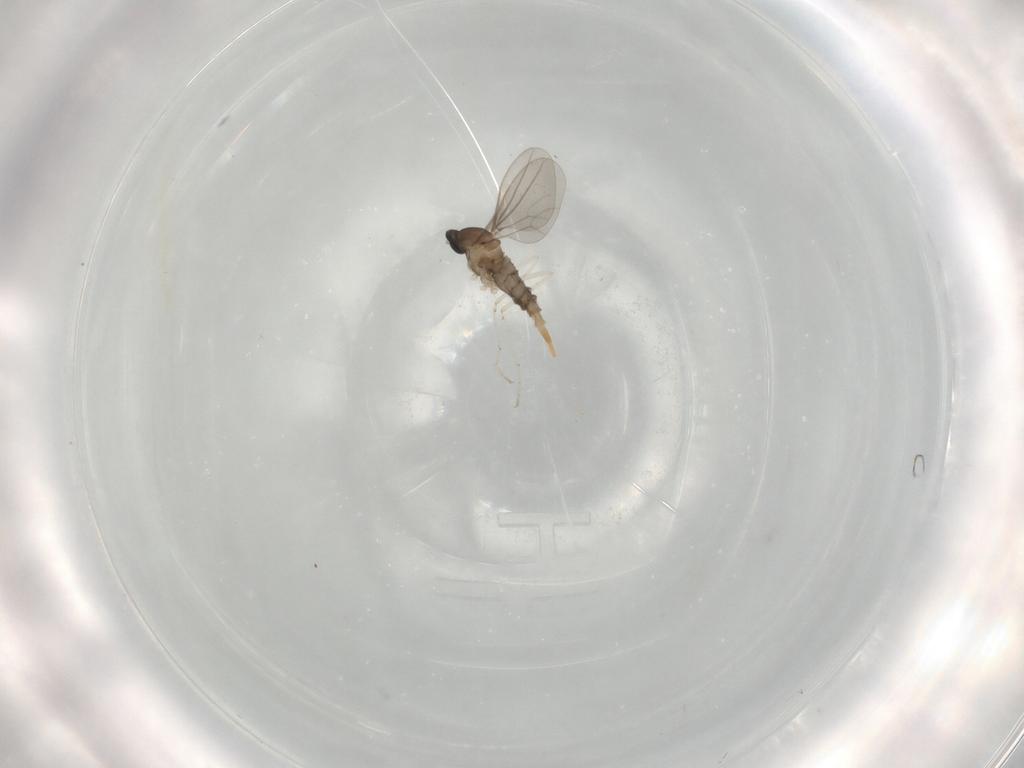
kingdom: Animalia
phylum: Arthropoda
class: Insecta
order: Diptera
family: Cecidomyiidae
